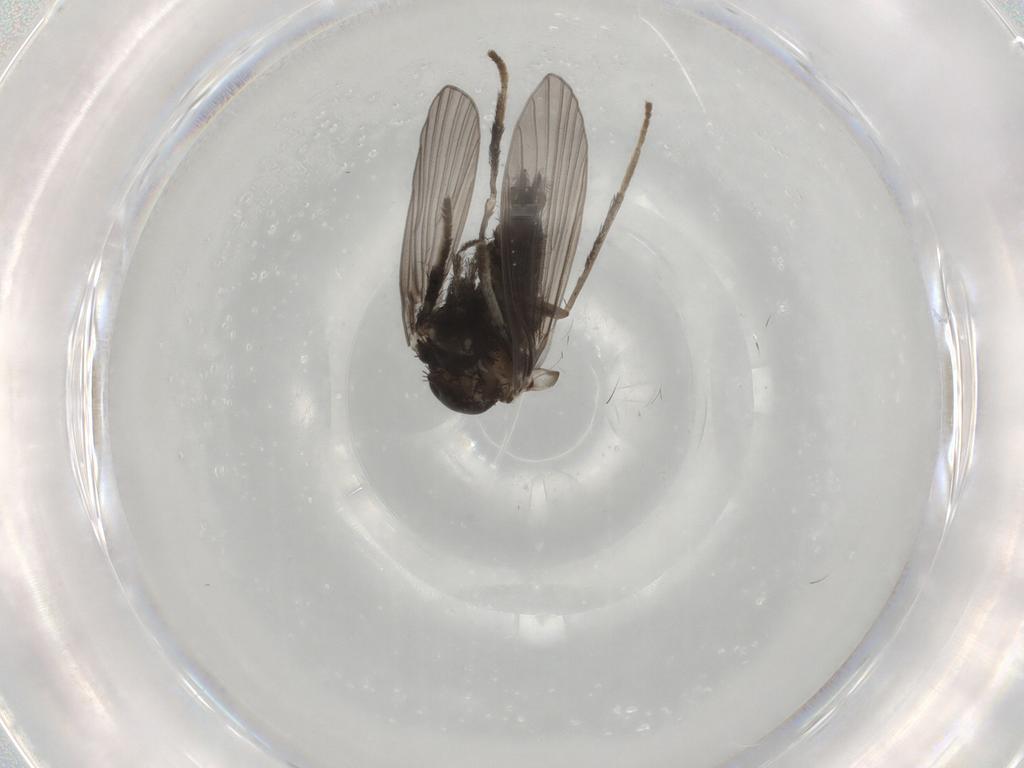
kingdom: Animalia
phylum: Arthropoda
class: Insecta
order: Diptera
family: Psychodidae
